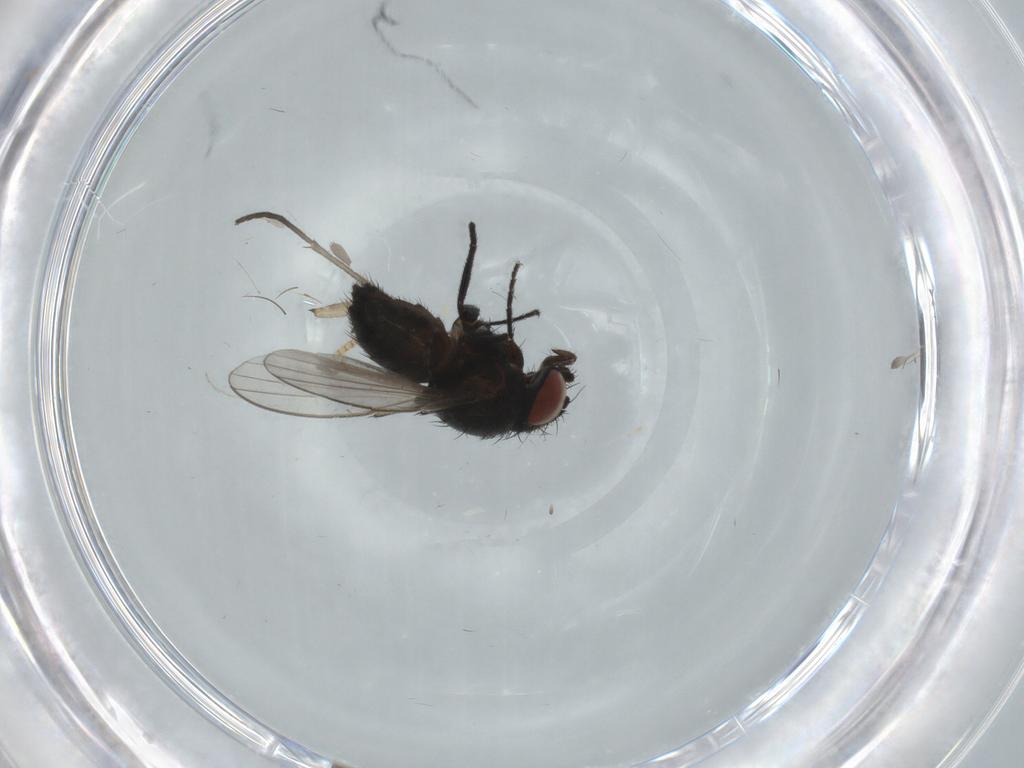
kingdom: Animalia
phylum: Arthropoda
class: Insecta
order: Diptera
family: Milichiidae
